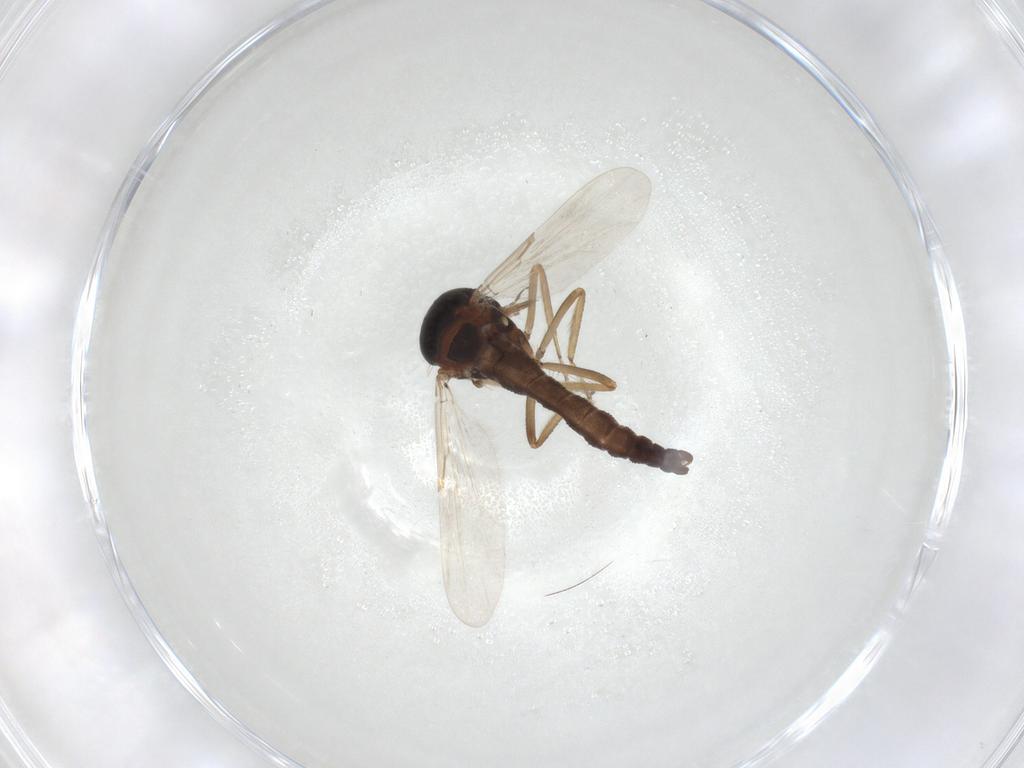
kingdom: Animalia
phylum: Arthropoda
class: Insecta
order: Diptera
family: Ceratopogonidae
